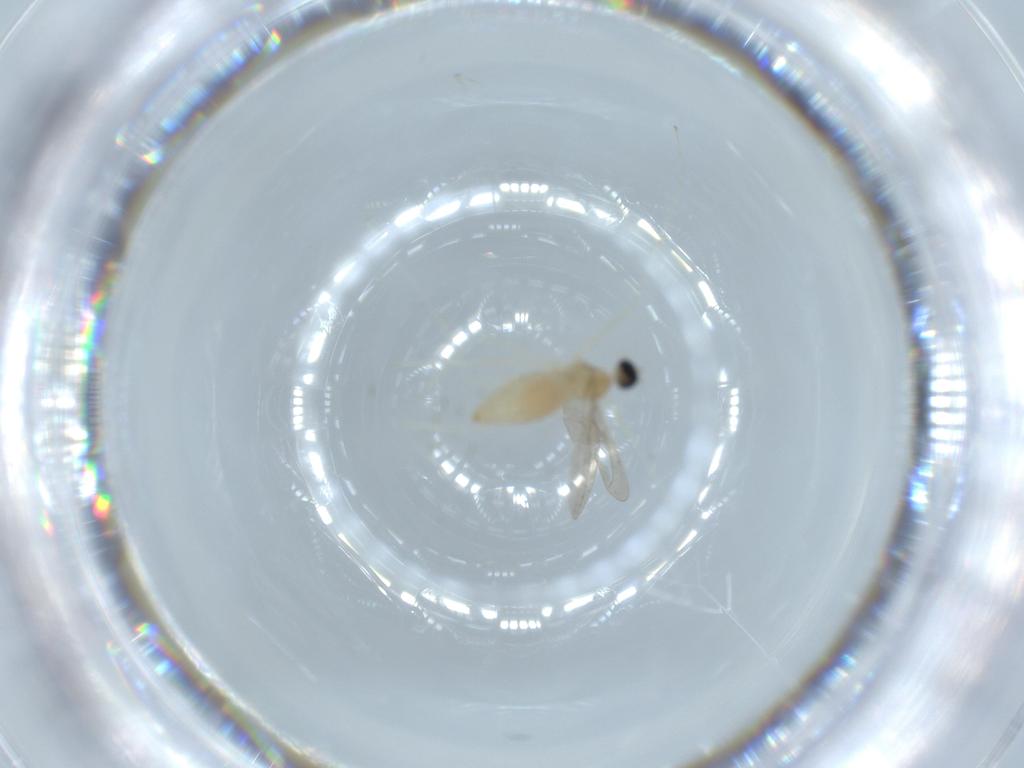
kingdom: Animalia
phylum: Arthropoda
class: Insecta
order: Diptera
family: Cecidomyiidae
